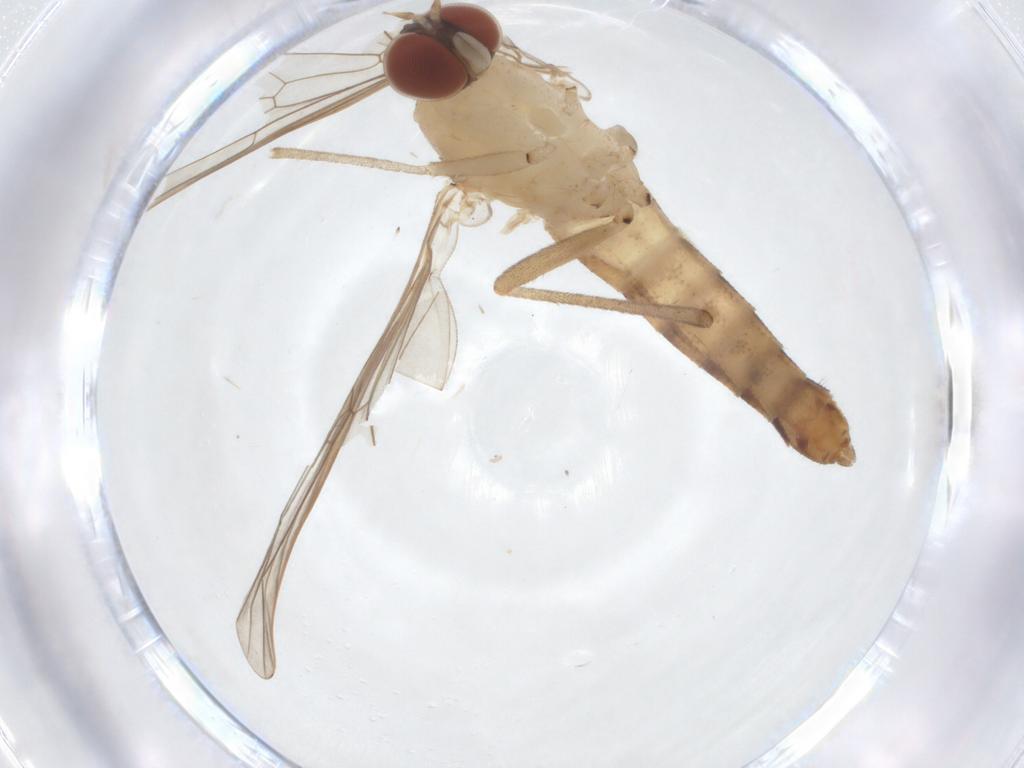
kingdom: Animalia
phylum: Arthropoda
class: Insecta
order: Diptera
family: Apsilocephalidae
